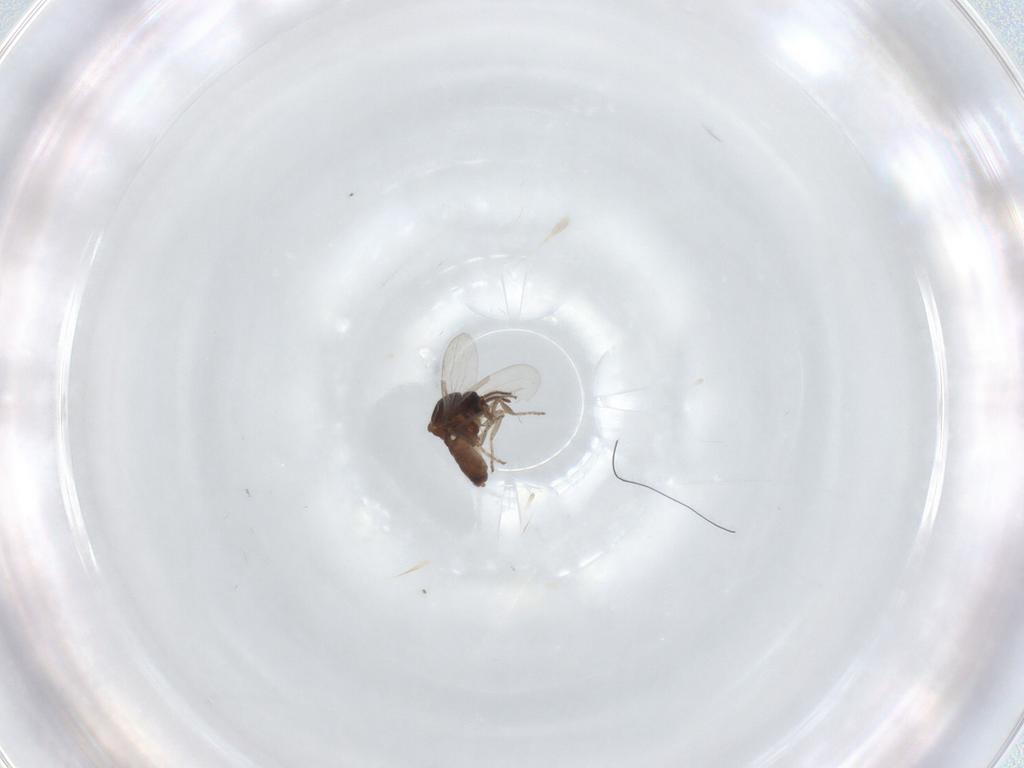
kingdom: Animalia
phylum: Arthropoda
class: Insecta
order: Diptera
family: Ceratopogonidae
